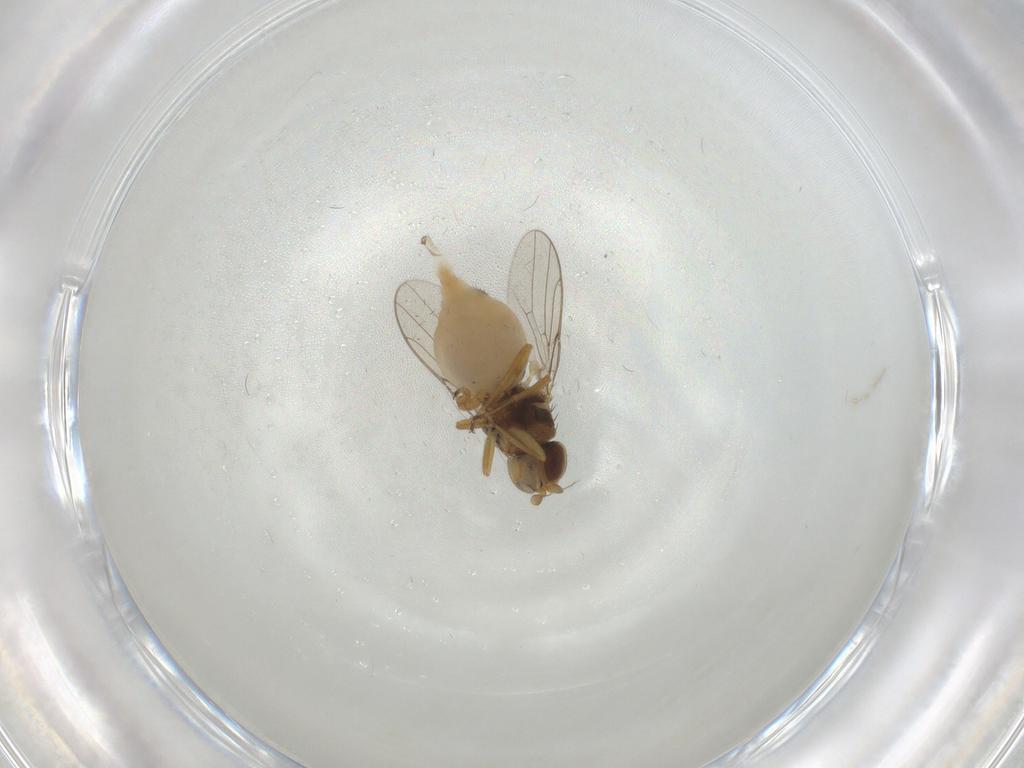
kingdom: Animalia
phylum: Arthropoda
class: Insecta
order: Diptera
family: Chloropidae
